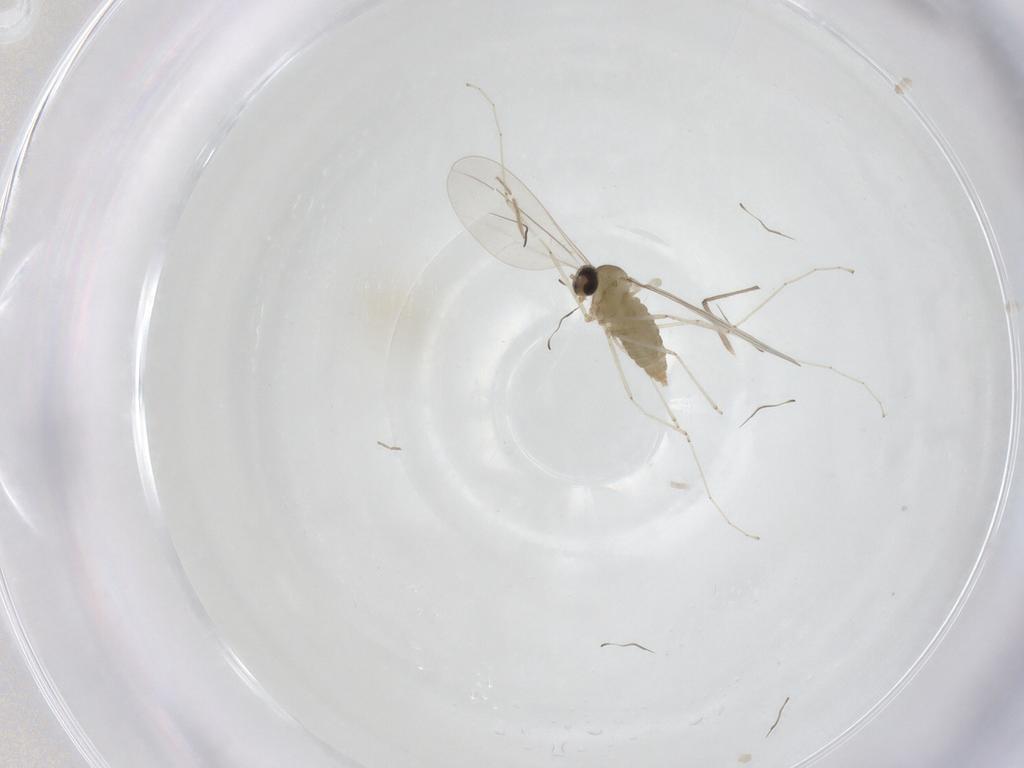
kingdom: Animalia
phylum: Arthropoda
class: Insecta
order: Diptera
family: Cecidomyiidae
